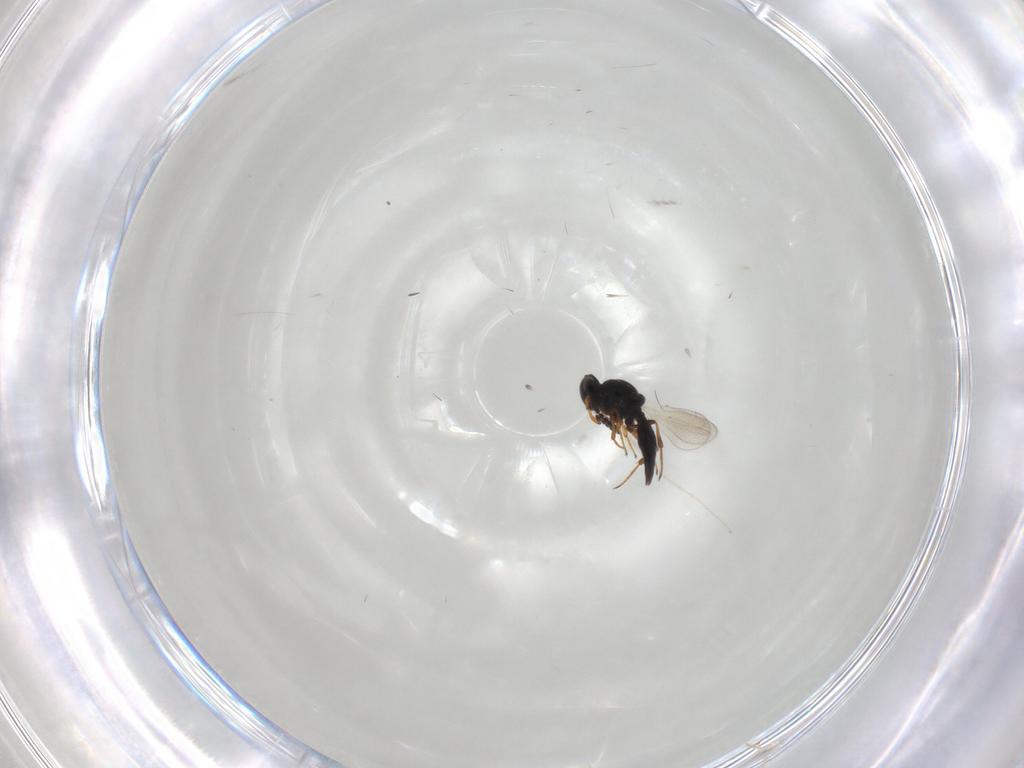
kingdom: Animalia
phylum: Arthropoda
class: Insecta
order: Hymenoptera
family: Platygastridae
